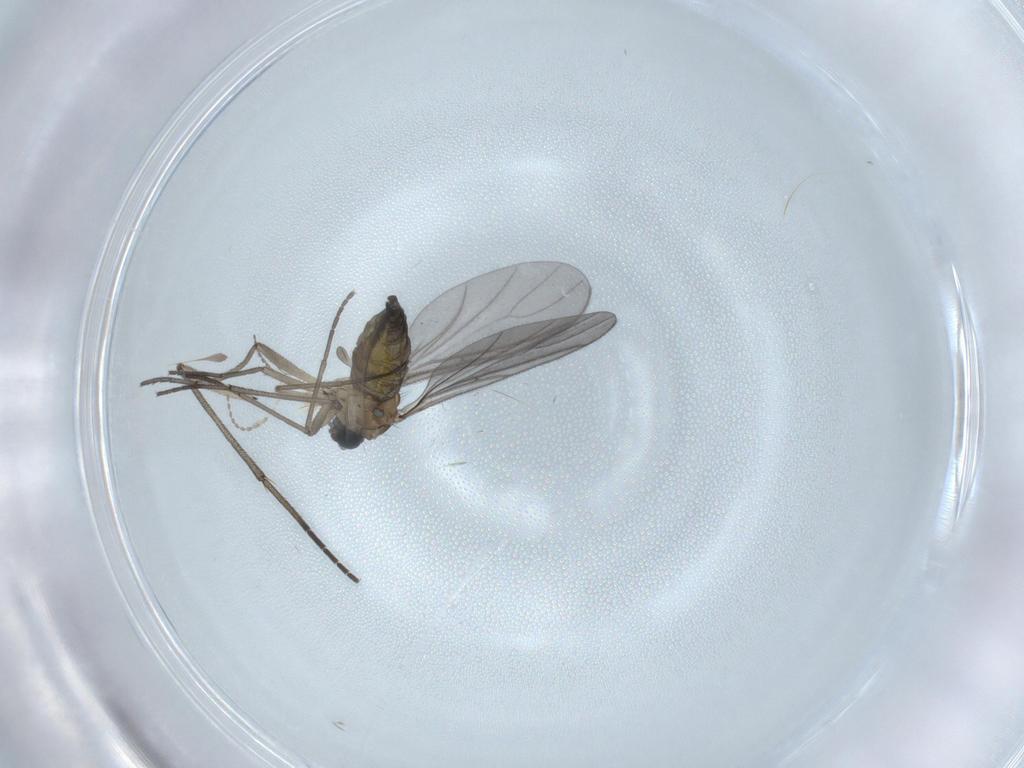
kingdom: Animalia
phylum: Arthropoda
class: Insecta
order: Diptera
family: Sciaridae
